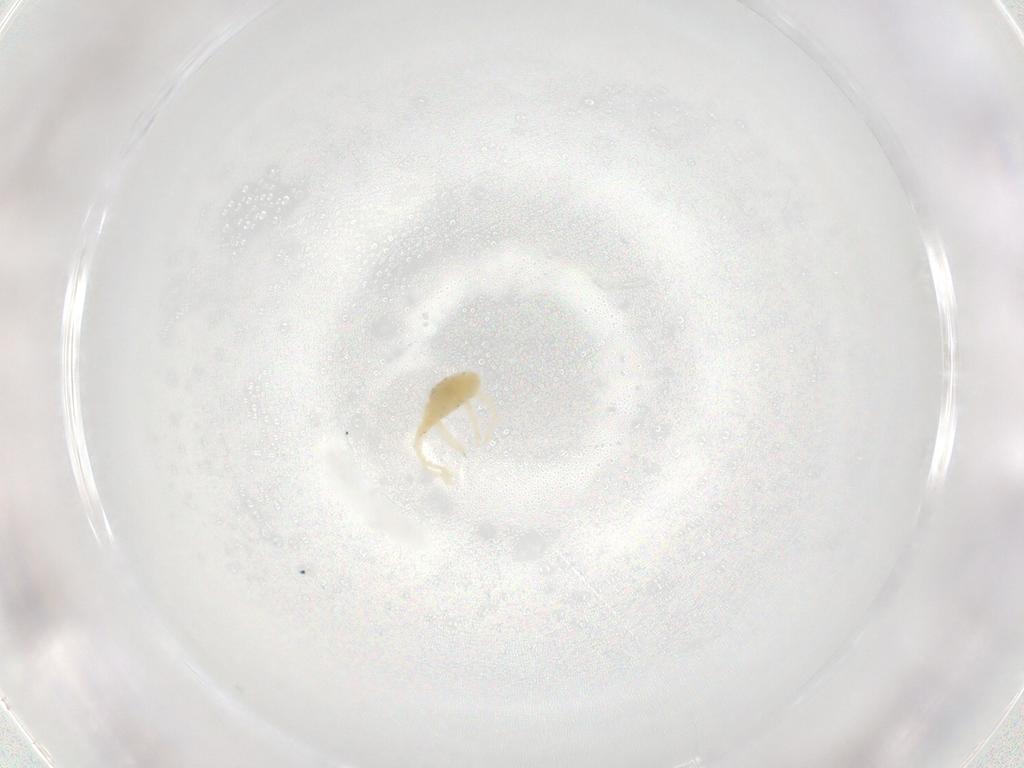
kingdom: Animalia
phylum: Arthropoda
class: Arachnida
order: Trombidiformes
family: Erythraeidae
